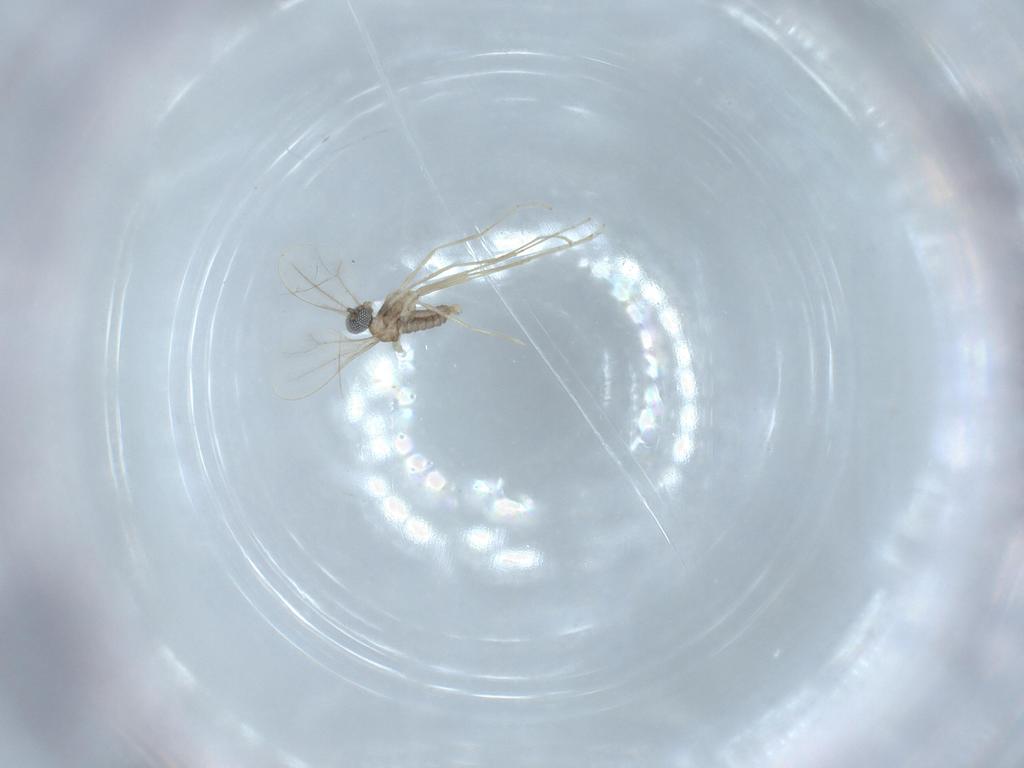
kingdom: Animalia
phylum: Arthropoda
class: Insecta
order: Diptera
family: Cecidomyiidae
